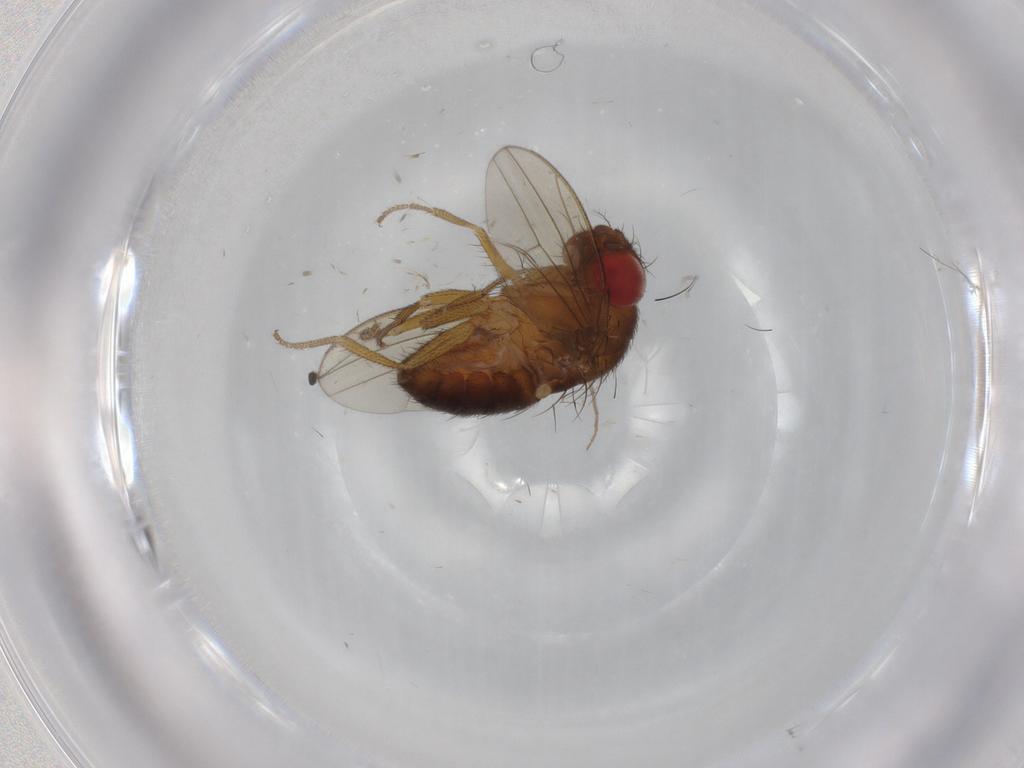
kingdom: Animalia
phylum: Arthropoda
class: Insecta
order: Diptera
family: Drosophilidae
